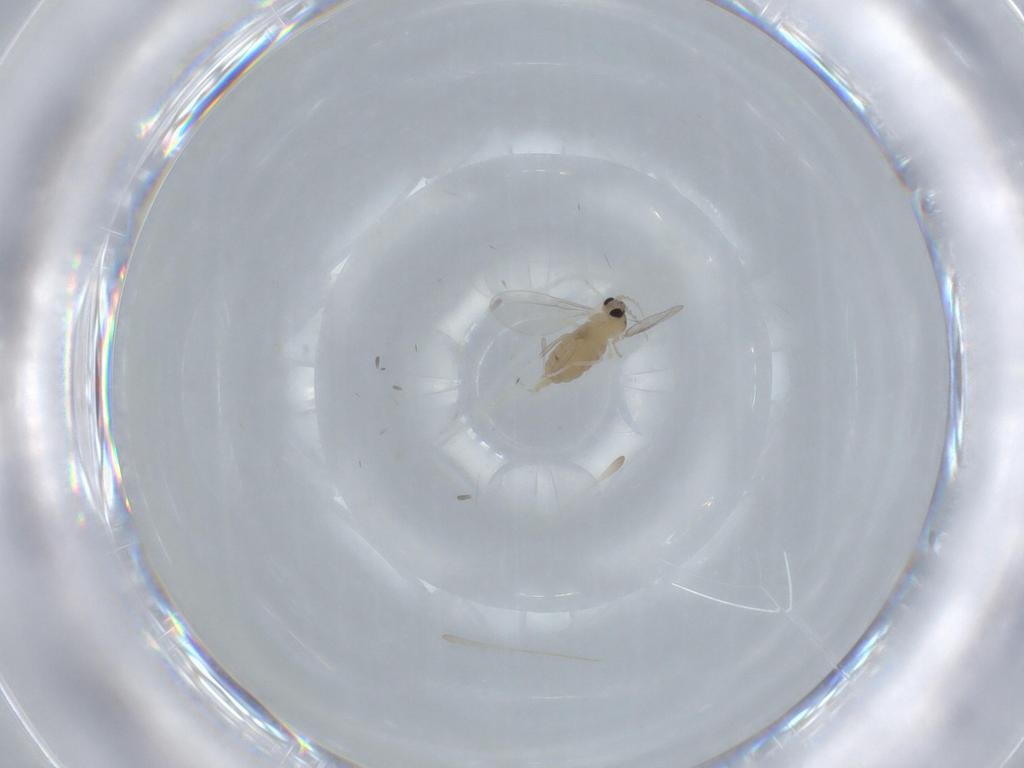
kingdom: Animalia
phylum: Arthropoda
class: Insecta
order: Diptera
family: Cecidomyiidae
